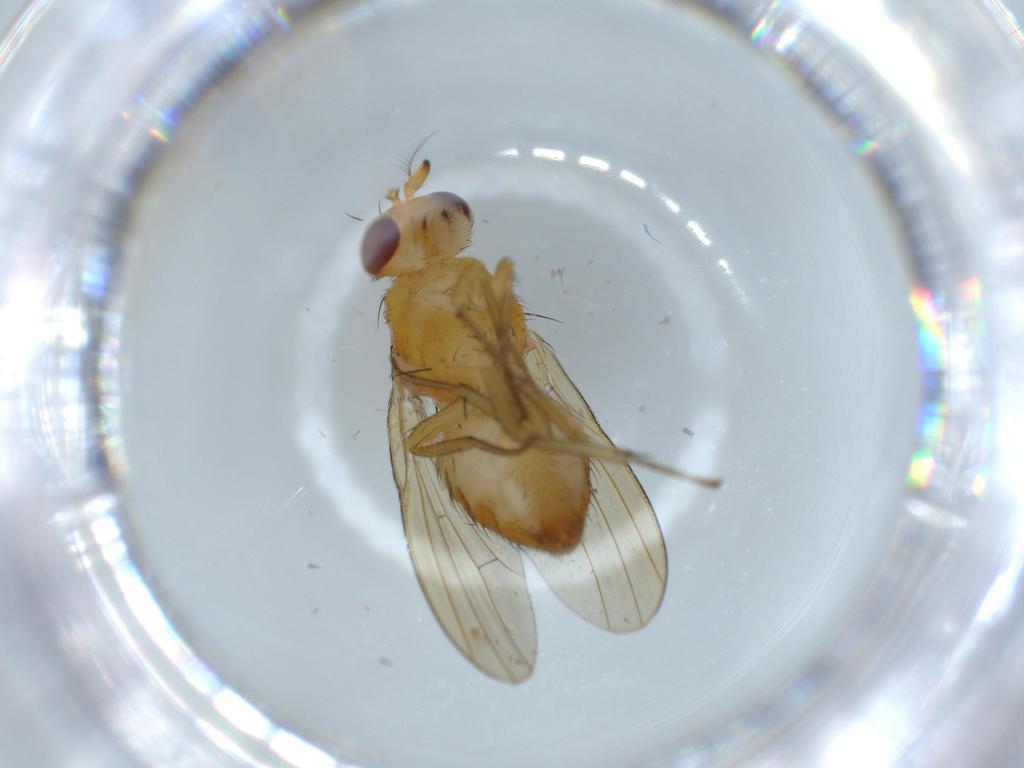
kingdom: Animalia
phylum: Arthropoda
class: Insecta
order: Diptera
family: Lauxaniidae
